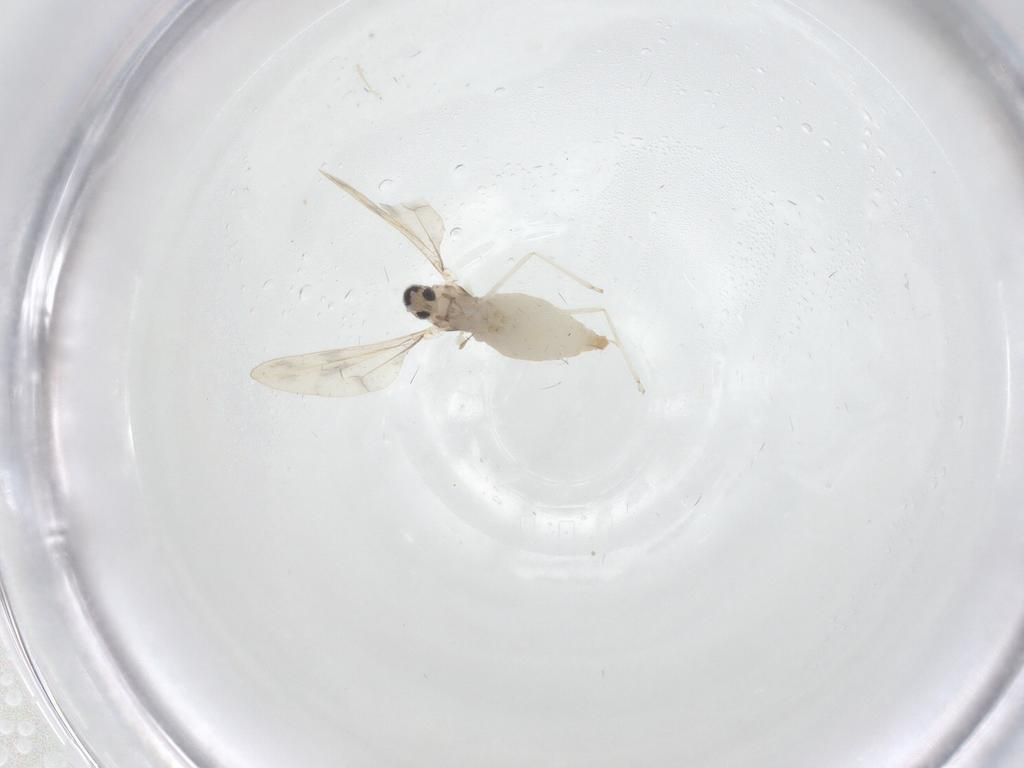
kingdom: Animalia
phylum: Arthropoda
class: Insecta
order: Diptera
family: Cecidomyiidae
